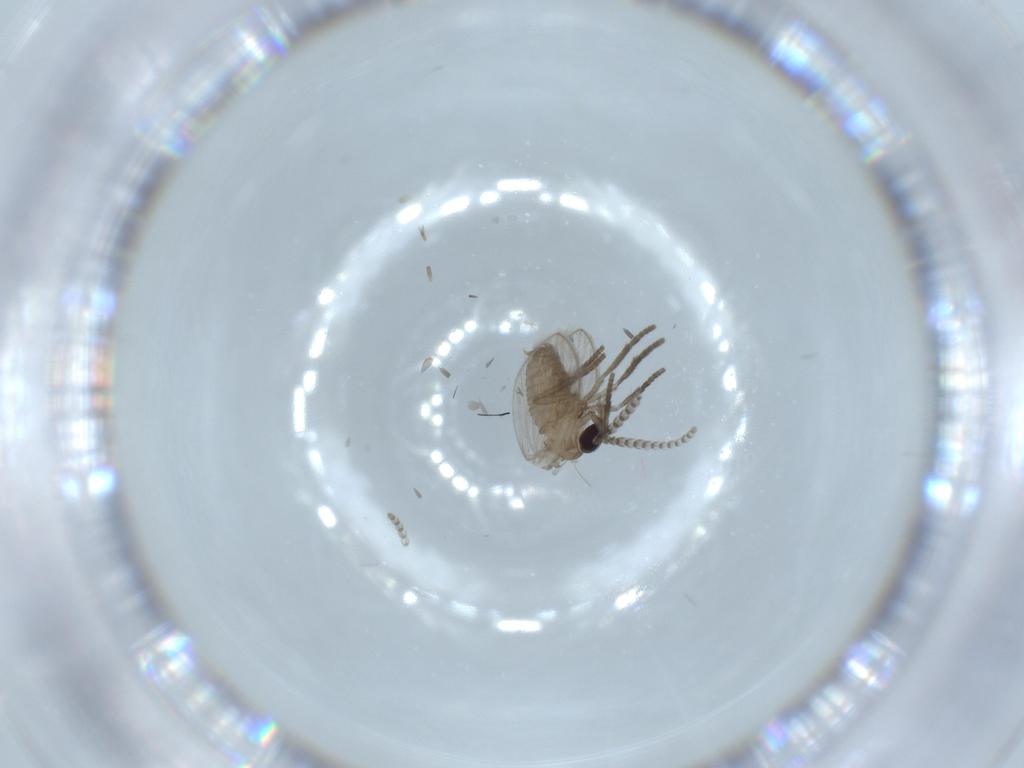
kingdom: Animalia
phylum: Arthropoda
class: Insecta
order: Diptera
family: Psychodidae
